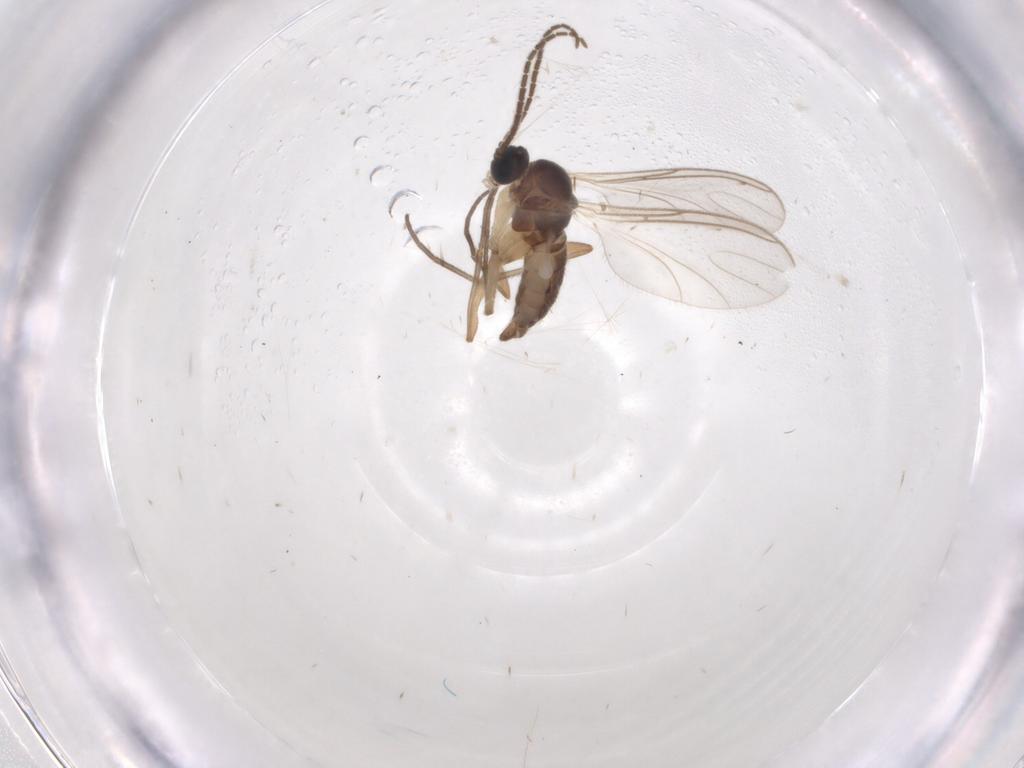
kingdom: Animalia
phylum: Arthropoda
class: Insecta
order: Diptera
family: Sciaridae
